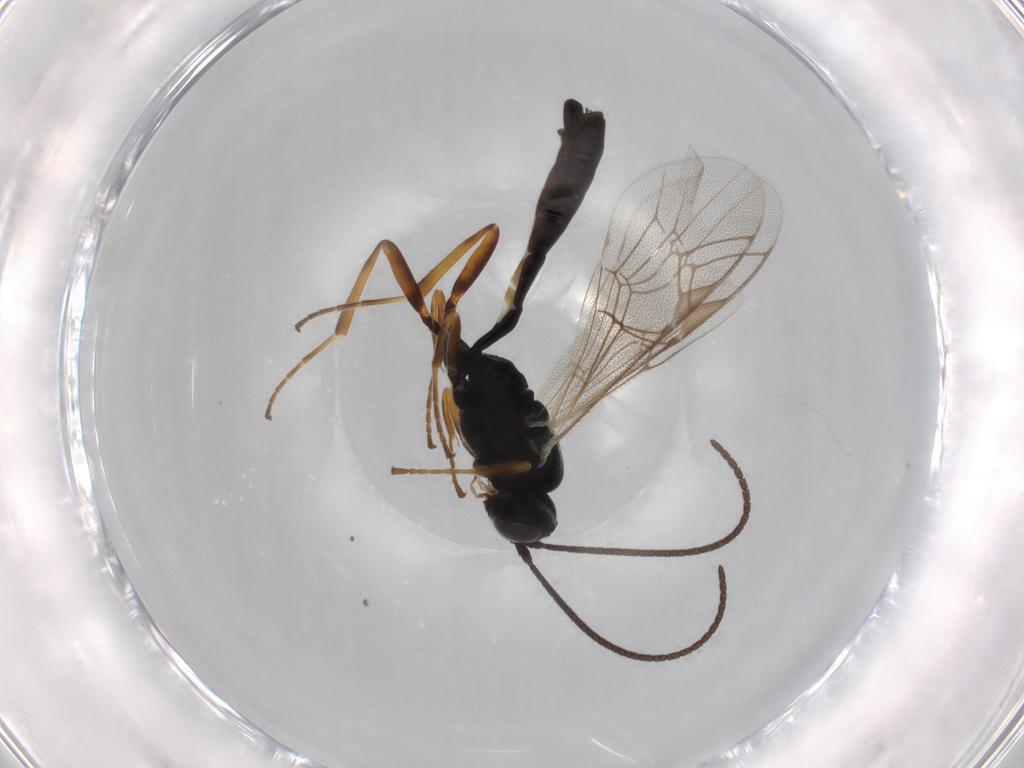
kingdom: Animalia
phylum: Arthropoda
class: Insecta
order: Hymenoptera
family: Ichneumonidae
